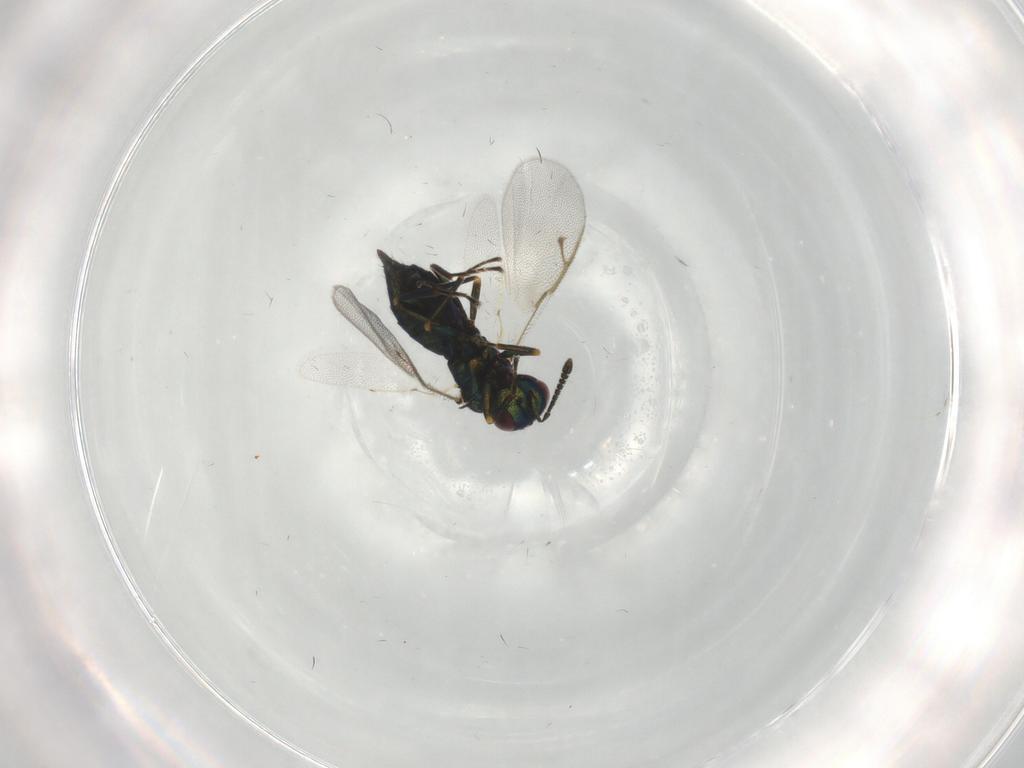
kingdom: Animalia
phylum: Arthropoda
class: Insecta
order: Hymenoptera
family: Pteromalidae
